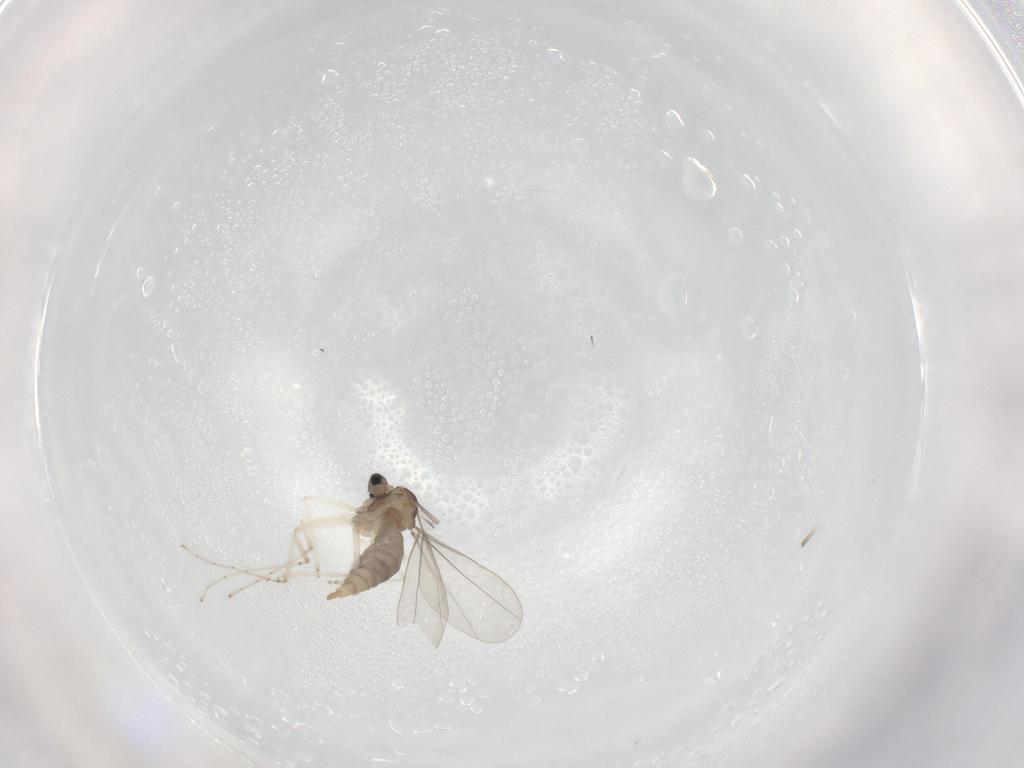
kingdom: Animalia
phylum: Arthropoda
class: Insecta
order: Diptera
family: Cecidomyiidae
